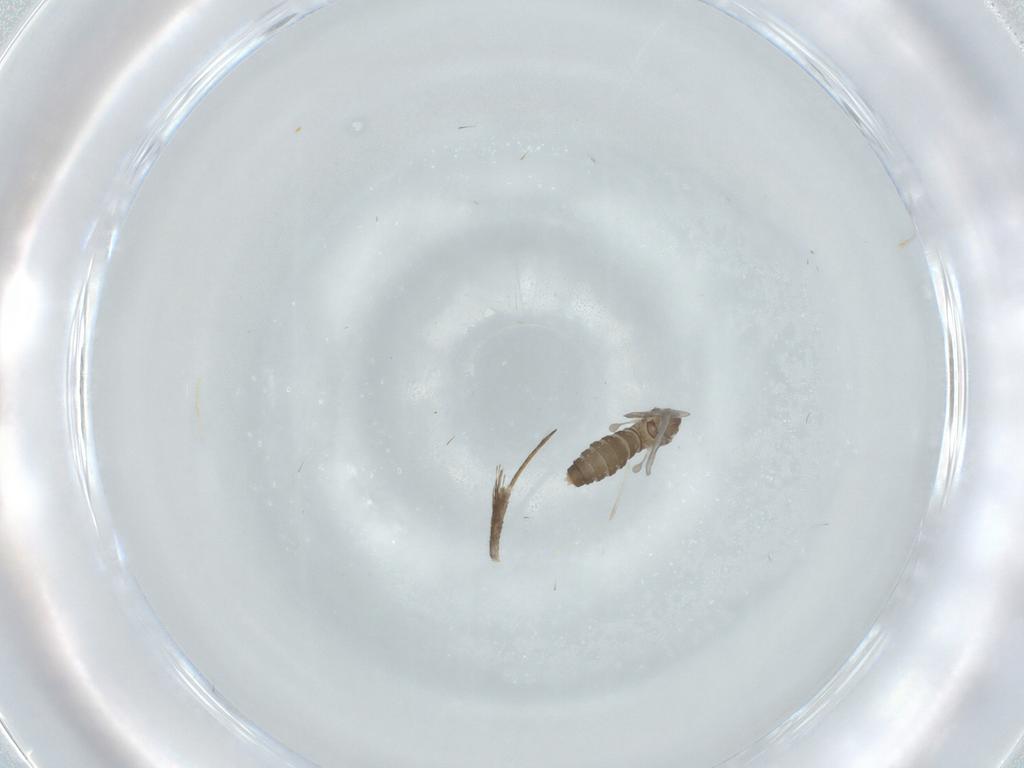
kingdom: Animalia
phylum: Arthropoda
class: Insecta
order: Diptera
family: Cecidomyiidae
